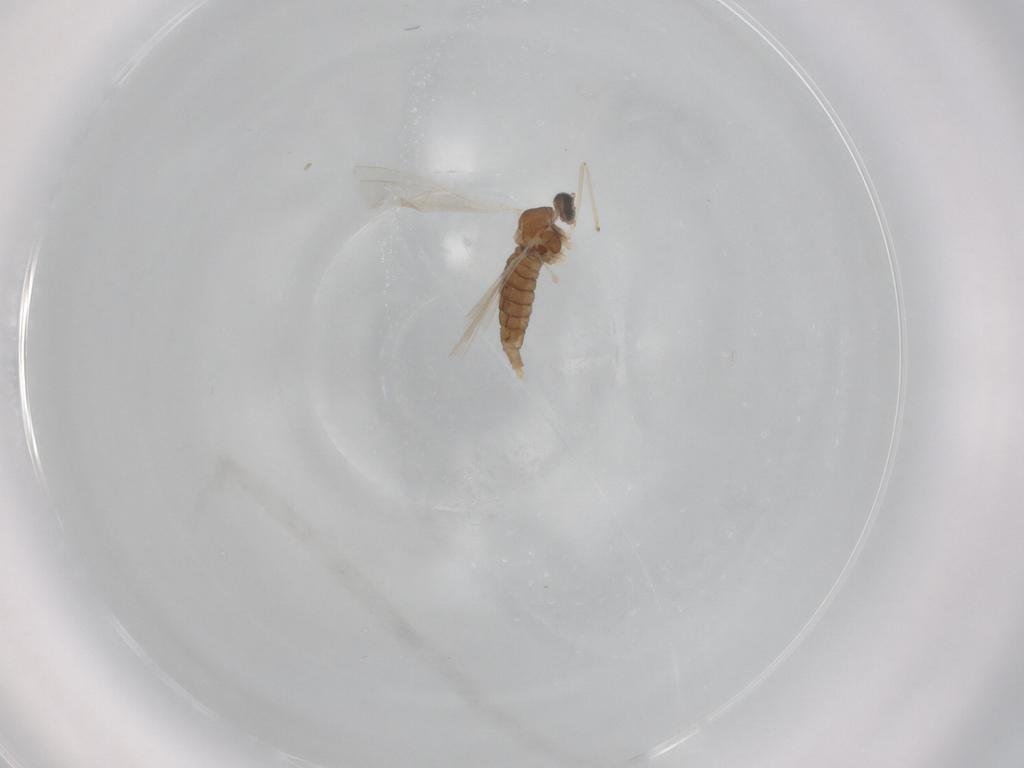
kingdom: Animalia
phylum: Arthropoda
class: Insecta
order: Diptera
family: Cecidomyiidae
